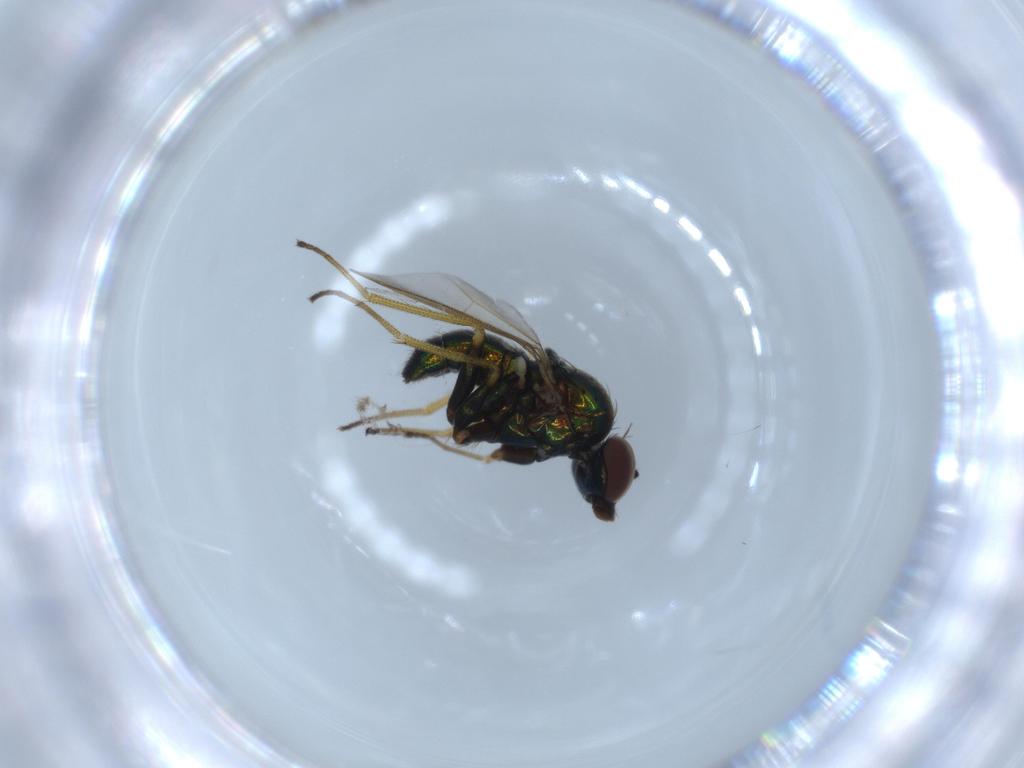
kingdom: Animalia
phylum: Arthropoda
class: Insecta
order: Diptera
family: Dolichopodidae
